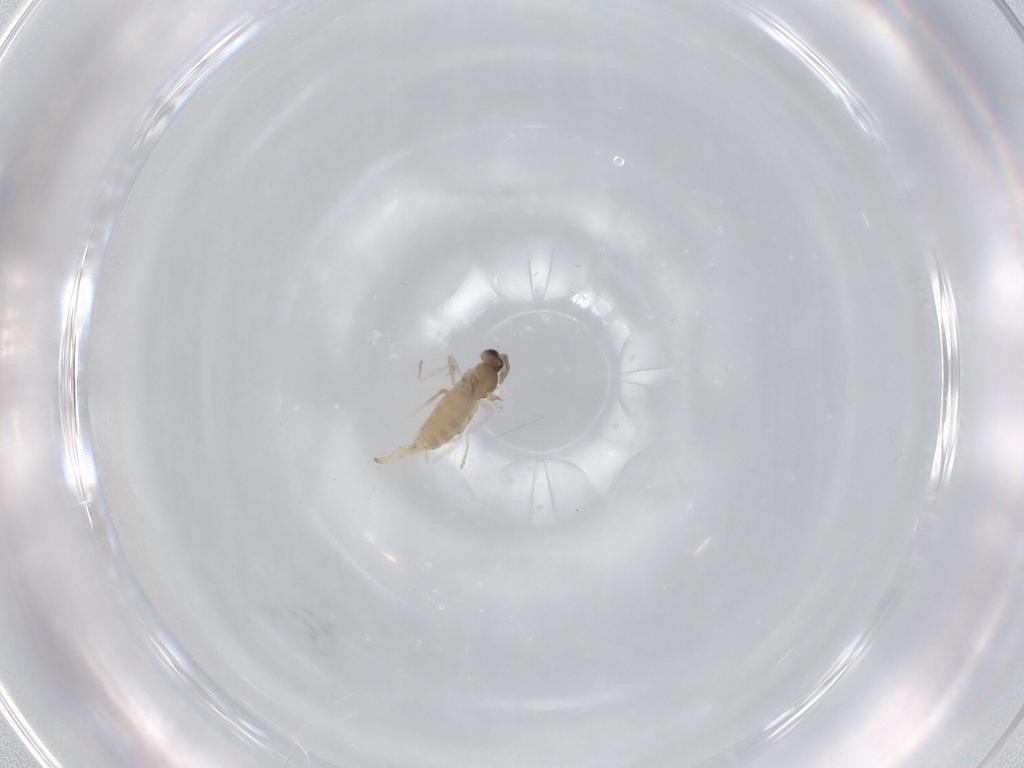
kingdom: Animalia
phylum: Arthropoda
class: Insecta
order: Diptera
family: Cecidomyiidae
